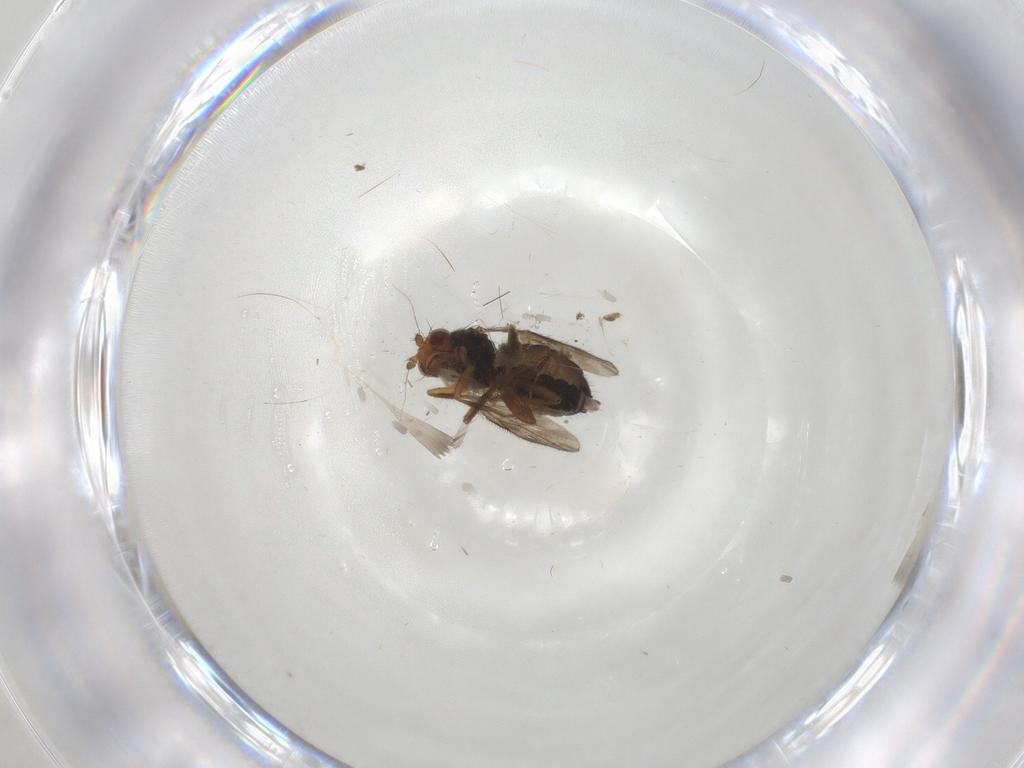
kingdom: Animalia
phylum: Arthropoda
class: Insecta
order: Diptera
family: Sphaeroceridae
